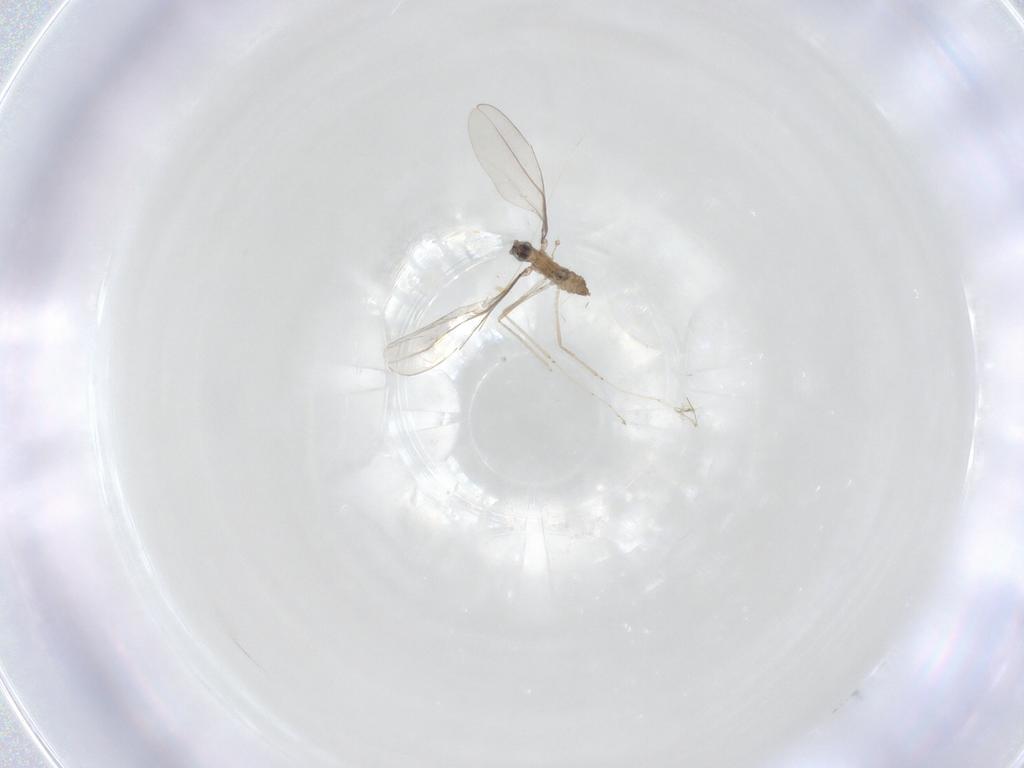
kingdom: Animalia
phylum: Arthropoda
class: Insecta
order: Diptera
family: Cecidomyiidae
